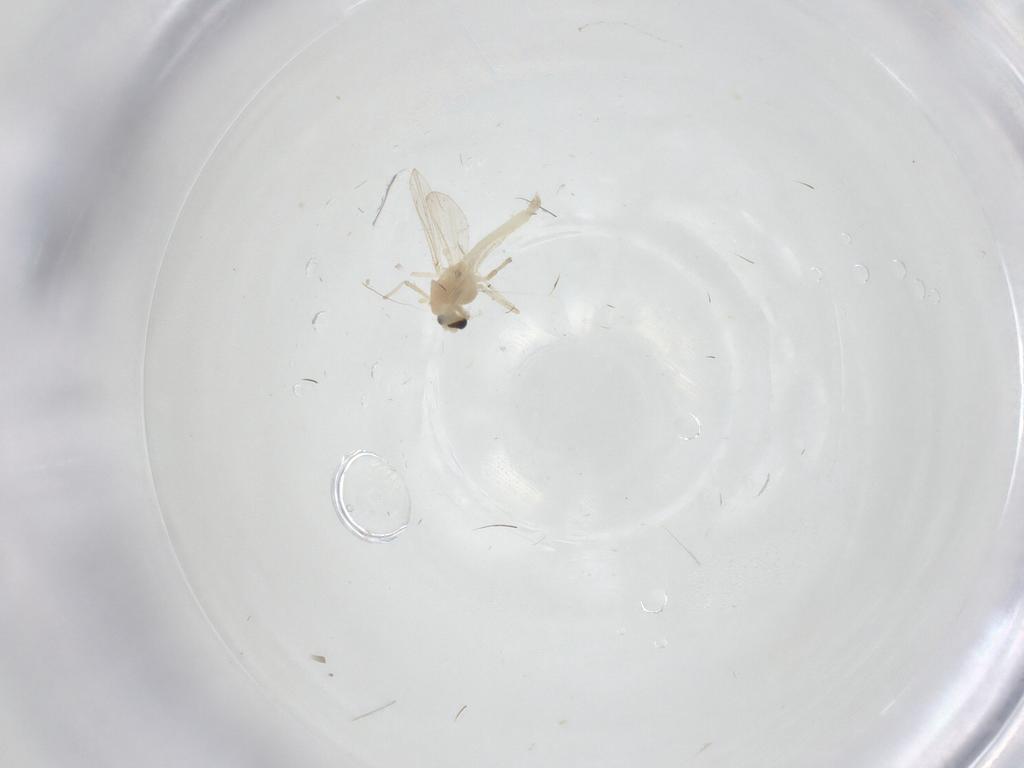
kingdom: Animalia
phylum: Arthropoda
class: Insecta
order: Diptera
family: Chironomidae
